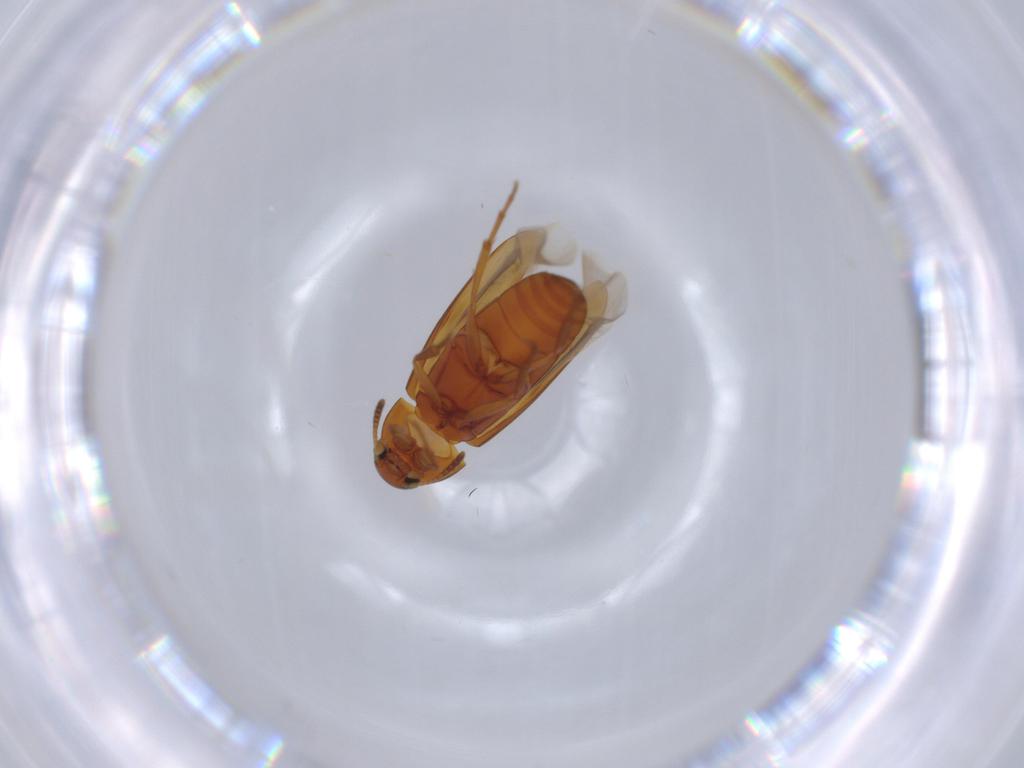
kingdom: Animalia
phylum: Arthropoda
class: Insecta
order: Coleoptera
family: Scraptiidae
